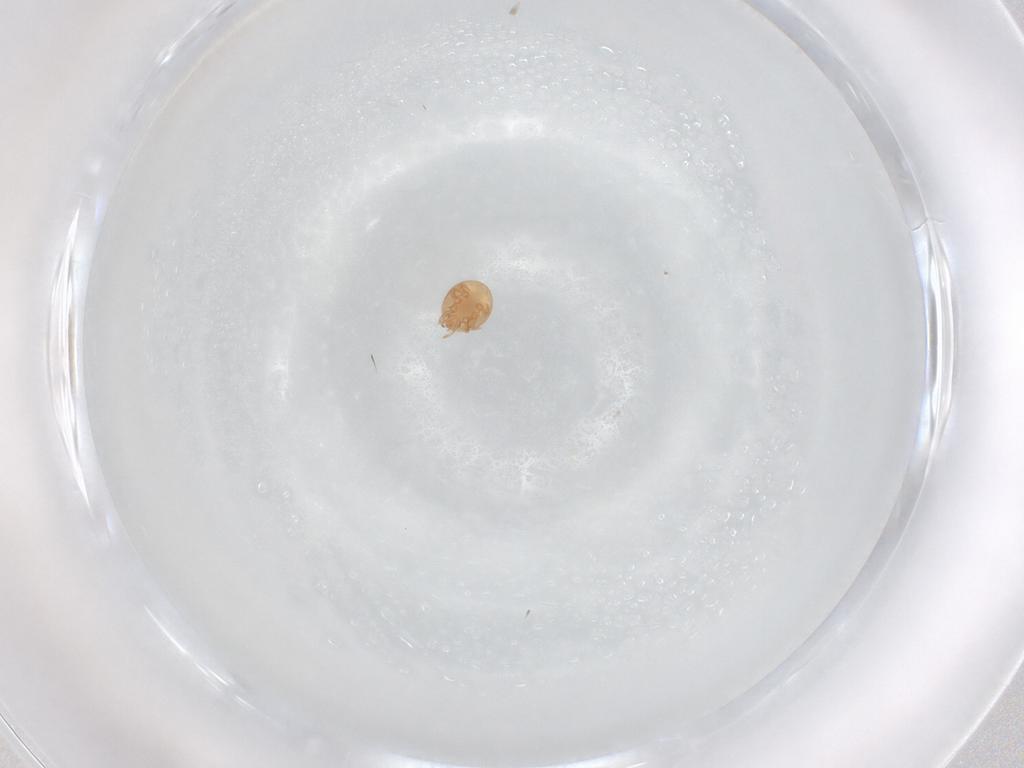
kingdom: Animalia
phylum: Arthropoda
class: Arachnida
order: Mesostigmata
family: Trematuridae
